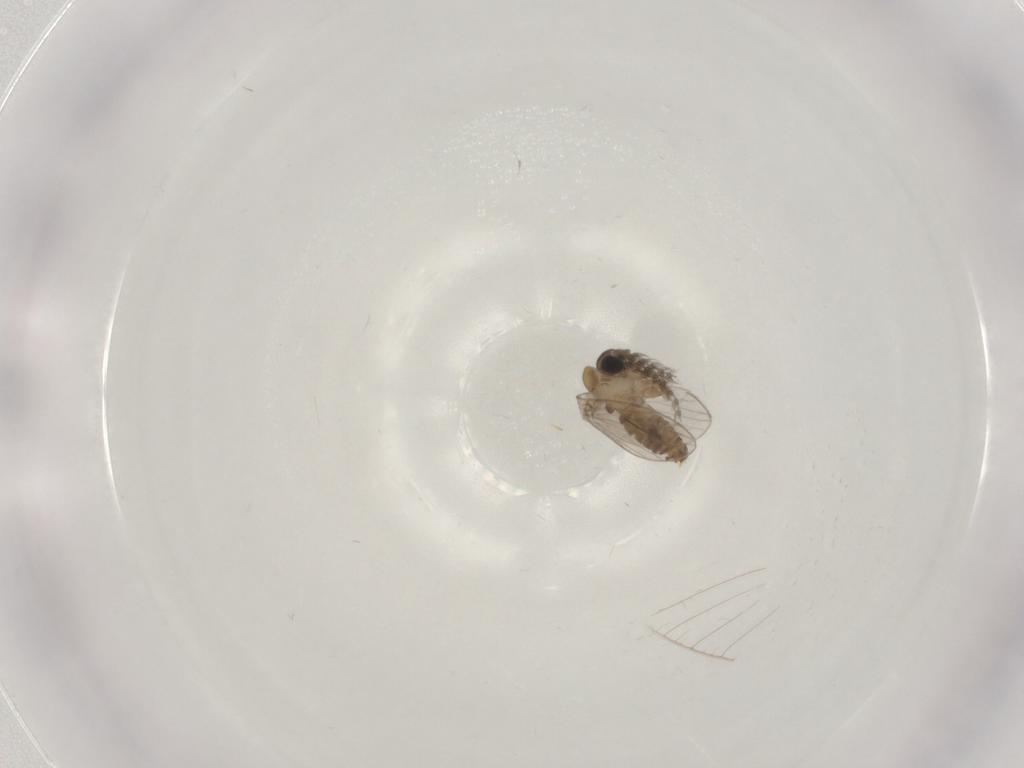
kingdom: Animalia
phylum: Arthropoda
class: Insecta
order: Diptera
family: Psychodidae
